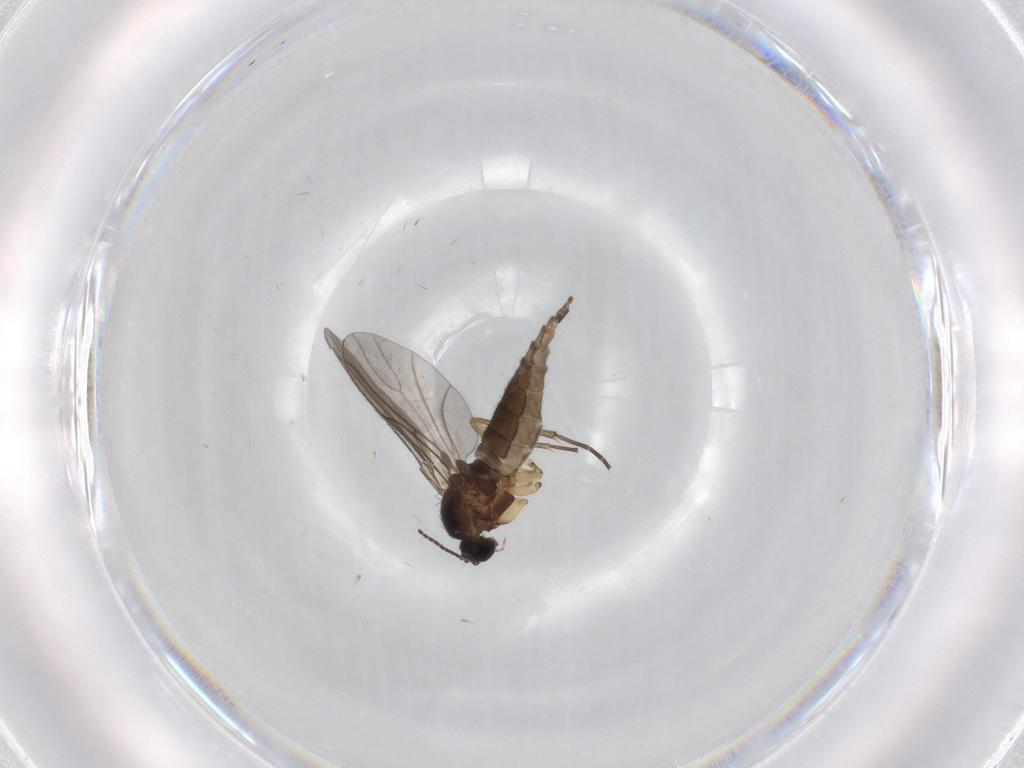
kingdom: Animalia
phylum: Arthropoda
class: Insecta
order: Diptera
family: Sciaridae
